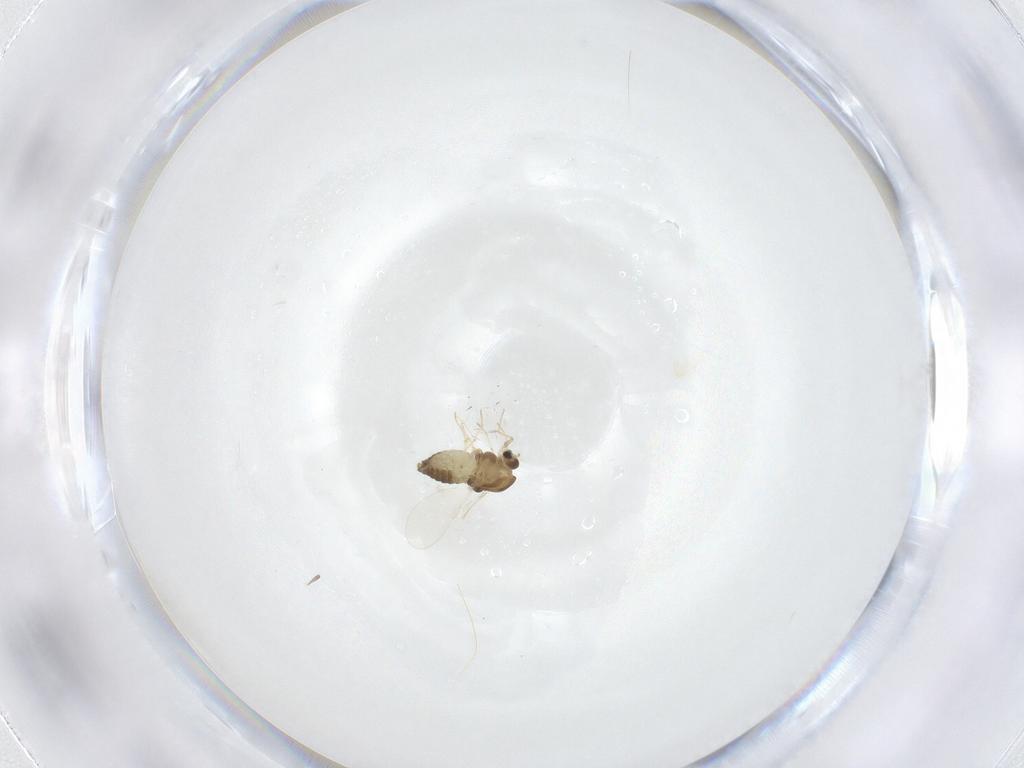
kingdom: Animalia
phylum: Arthropoda
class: Insecta
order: Diptera
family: Chironomidae
